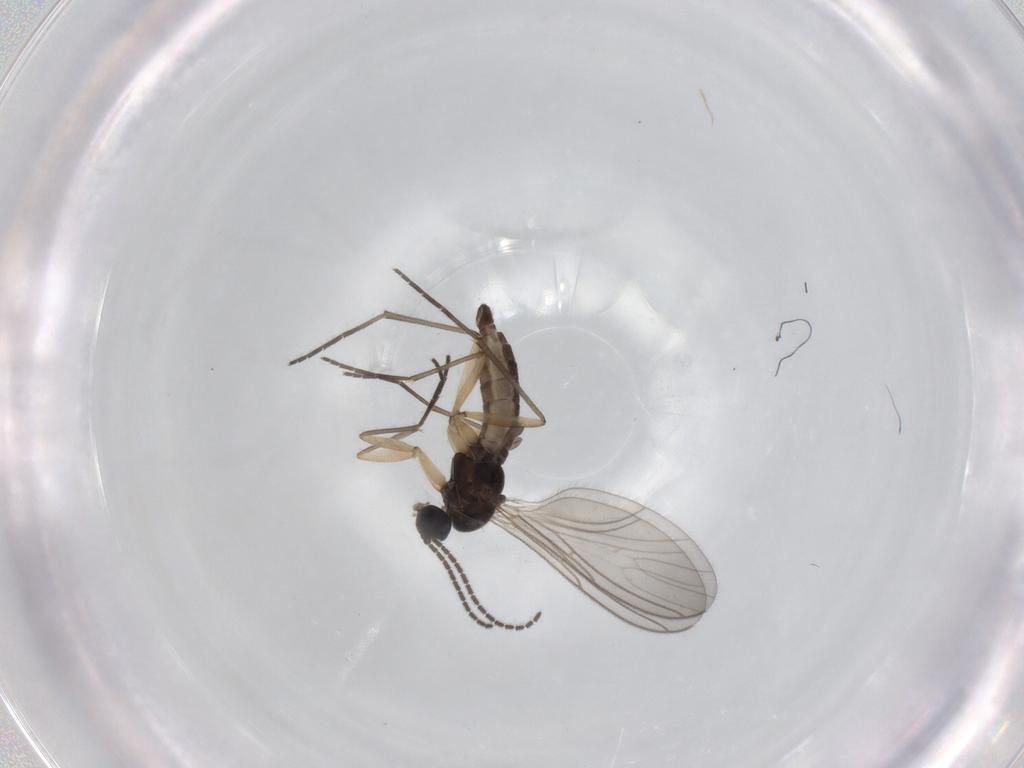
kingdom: Animalia
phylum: Arthropoda
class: Insecta
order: Diptera
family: Sciaridae
